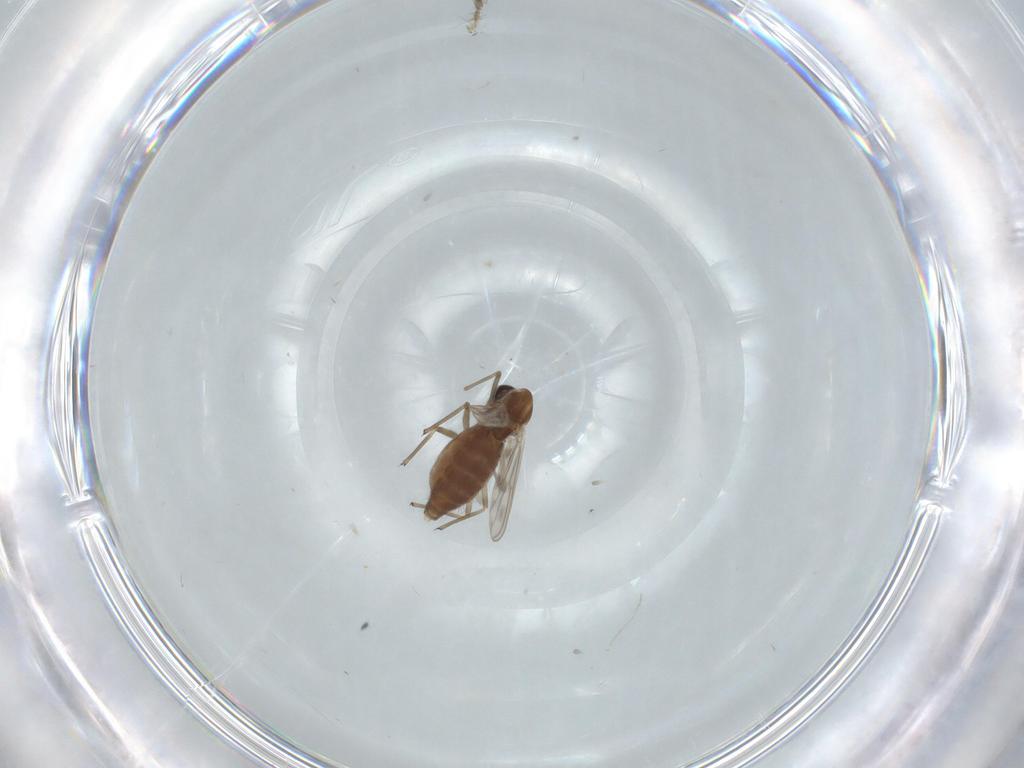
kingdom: Animalia
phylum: Arthropoda
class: Insecta
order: Diptera
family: Chironomidae
